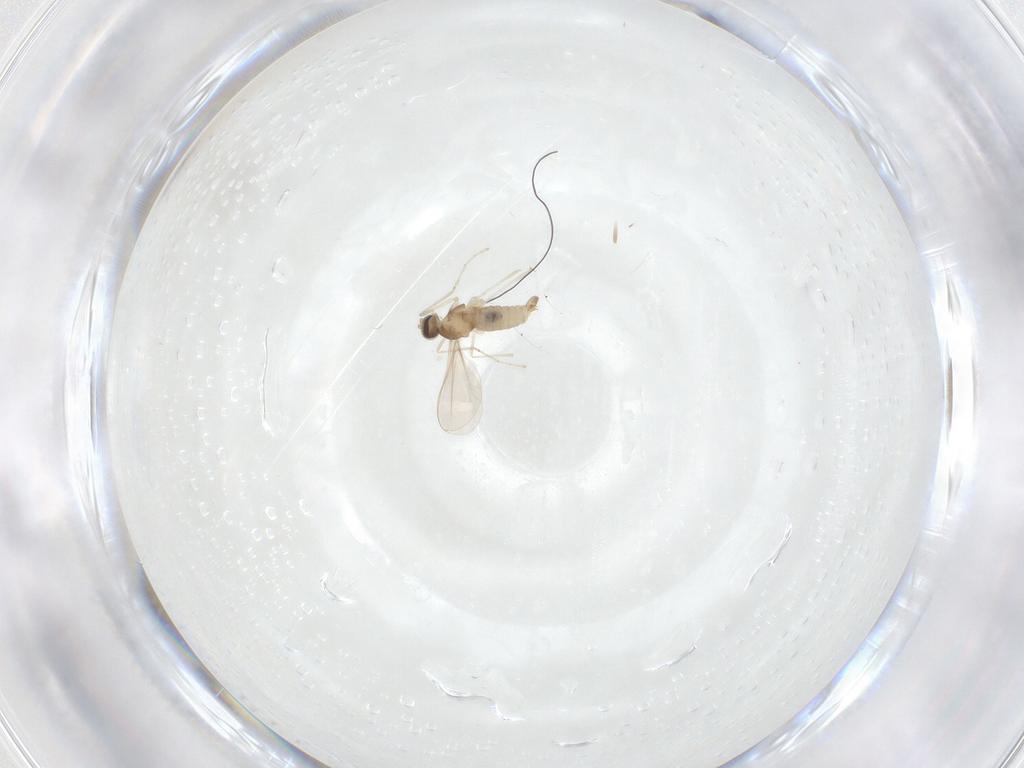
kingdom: Animalia
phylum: Arthropoda
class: Insecta
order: Diptera
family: Cecidomyiidae
